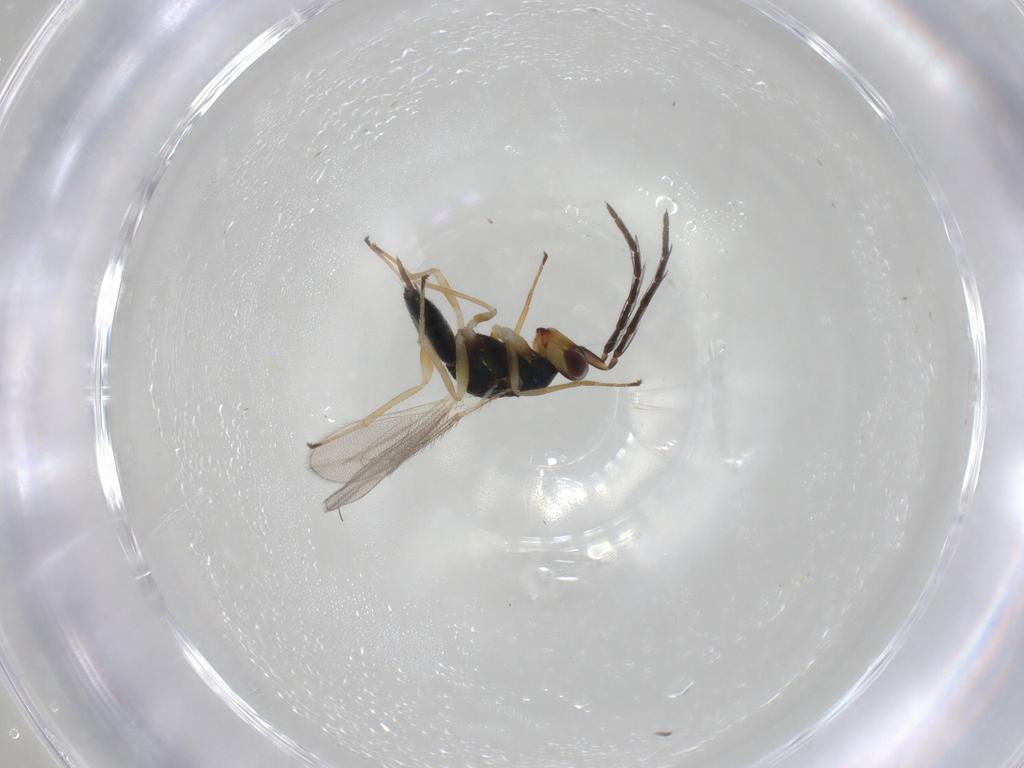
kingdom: Animalia
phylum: Arthropoda
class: Insecta
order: Hymenoptera
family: Eulophidae
